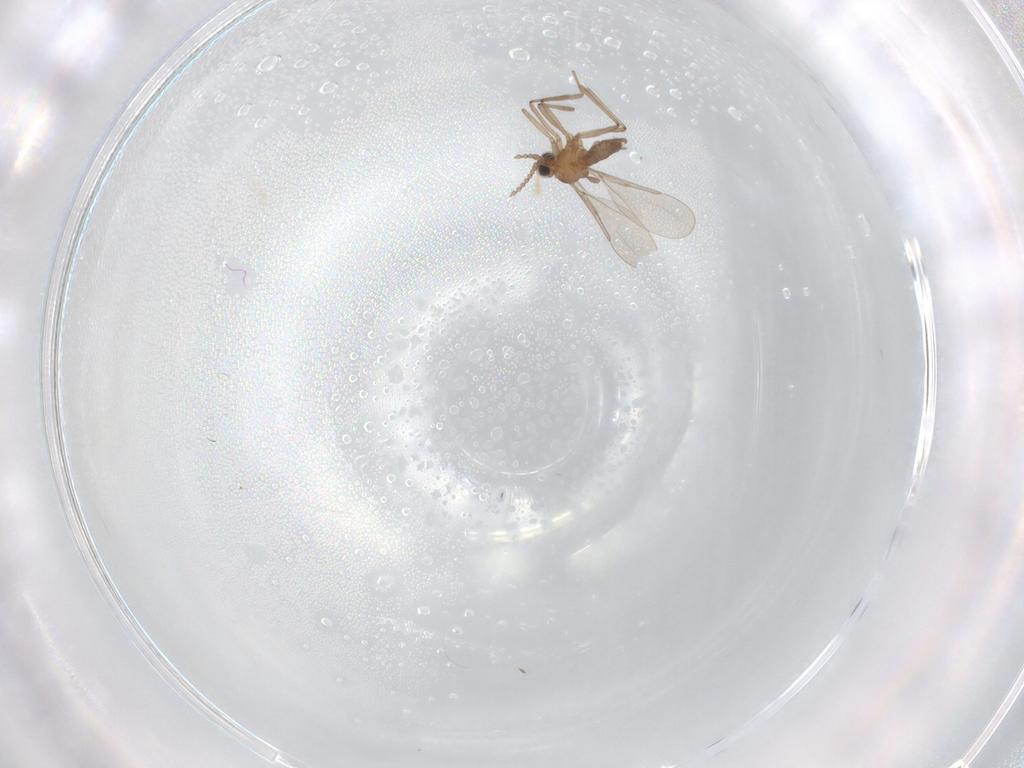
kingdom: Animalia
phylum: Arthropoda
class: Insecta
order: Diptera
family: Cecidomyiidae
